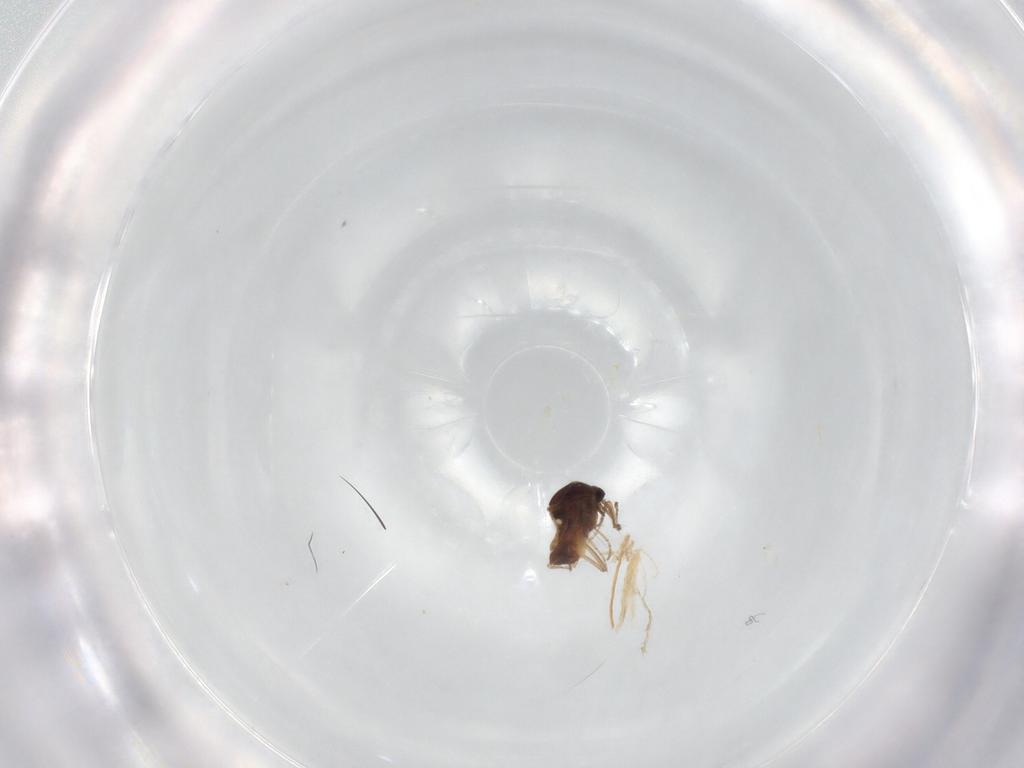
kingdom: Animalia
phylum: Arthropoda
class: Insecta
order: Diptera
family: Ceratopogonidae
